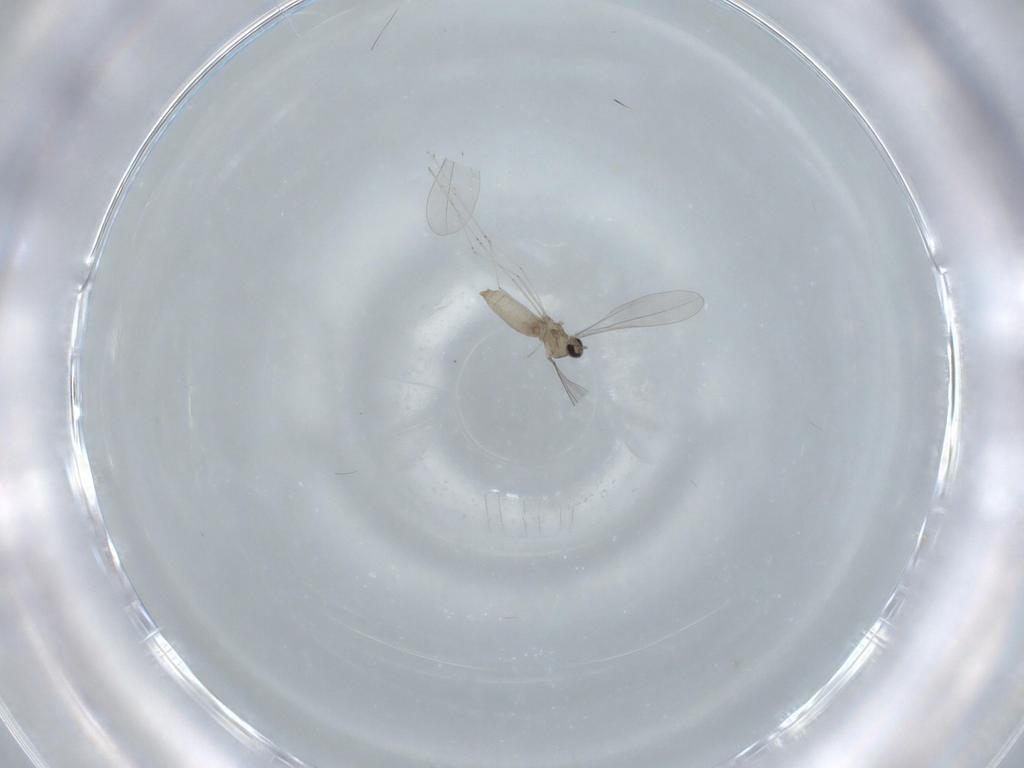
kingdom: Animalia
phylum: Arthropoda
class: Insecta
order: Diptera
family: Cecidomyiidae
